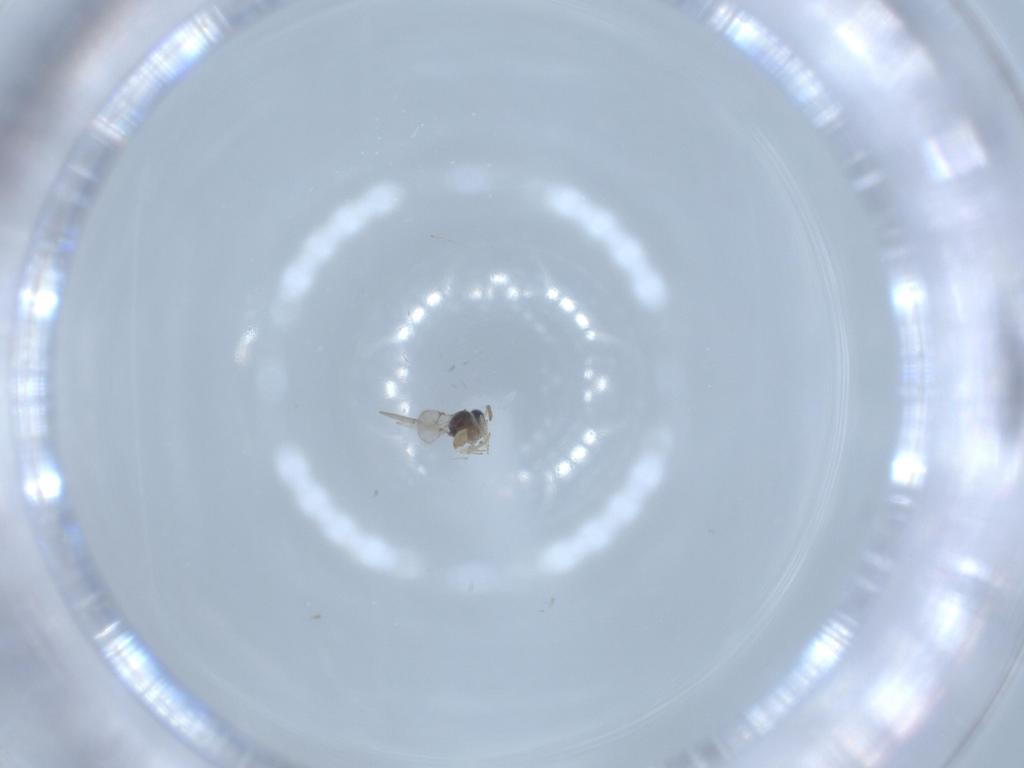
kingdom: Animalia
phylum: Arthropoda
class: Insecta
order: Hymenoptera
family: Scelionidae
